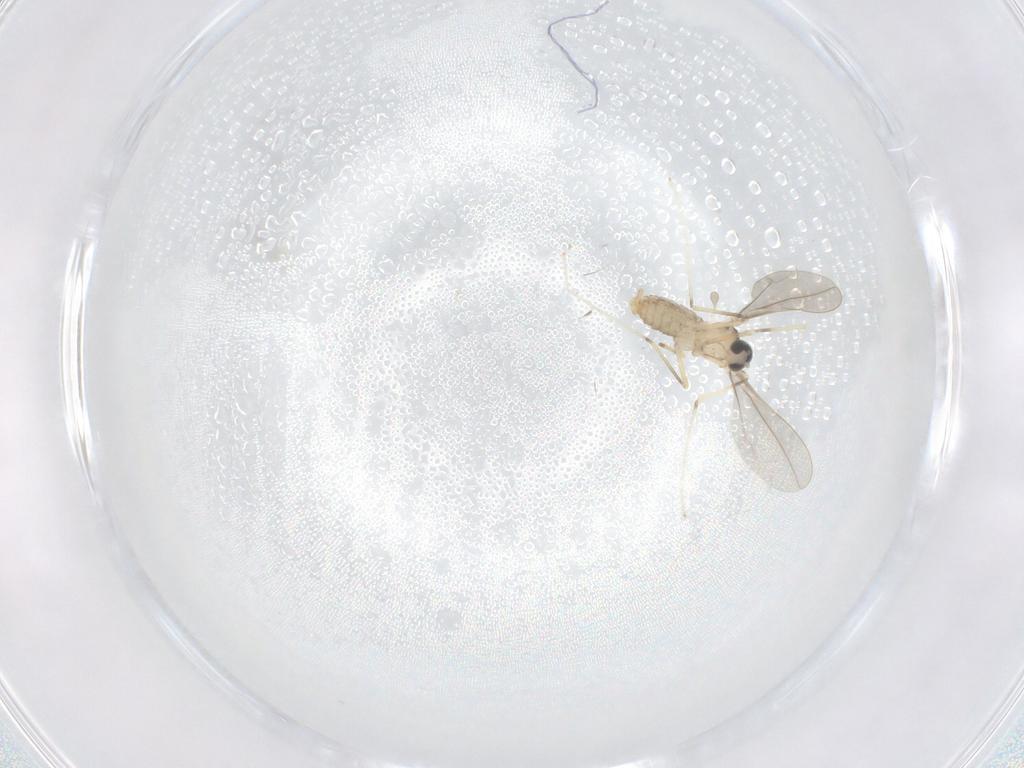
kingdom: Animalia
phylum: Arthropoda
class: Insecta
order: Diptera
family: Cecidomyiidae
